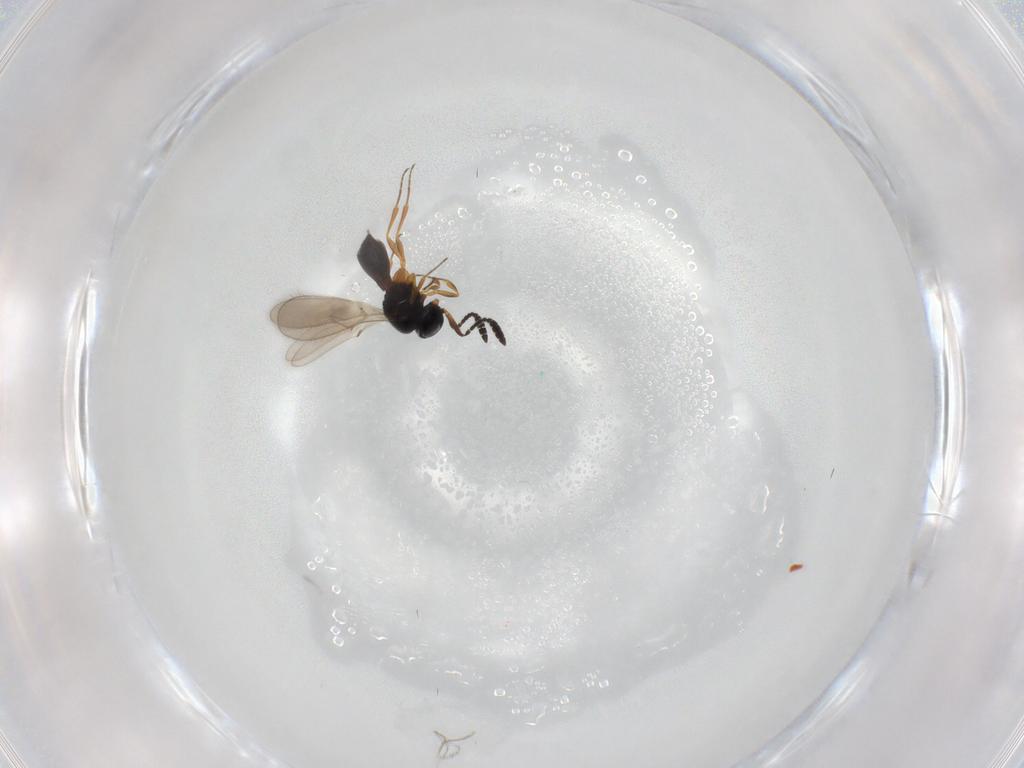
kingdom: Animalia
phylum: Arthropoda
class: Insecta
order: Hymenoptera
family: Scelionidae
